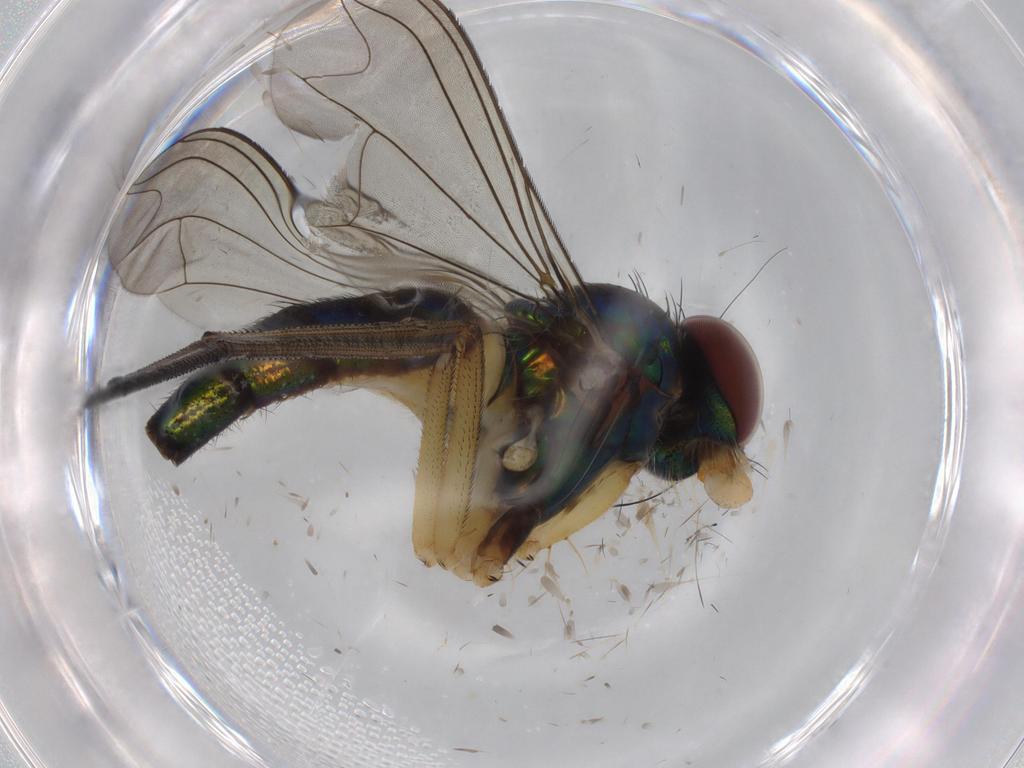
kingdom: Animalia
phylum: Arthropoda
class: Insecta
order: Diptera
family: Dolichopodidae
